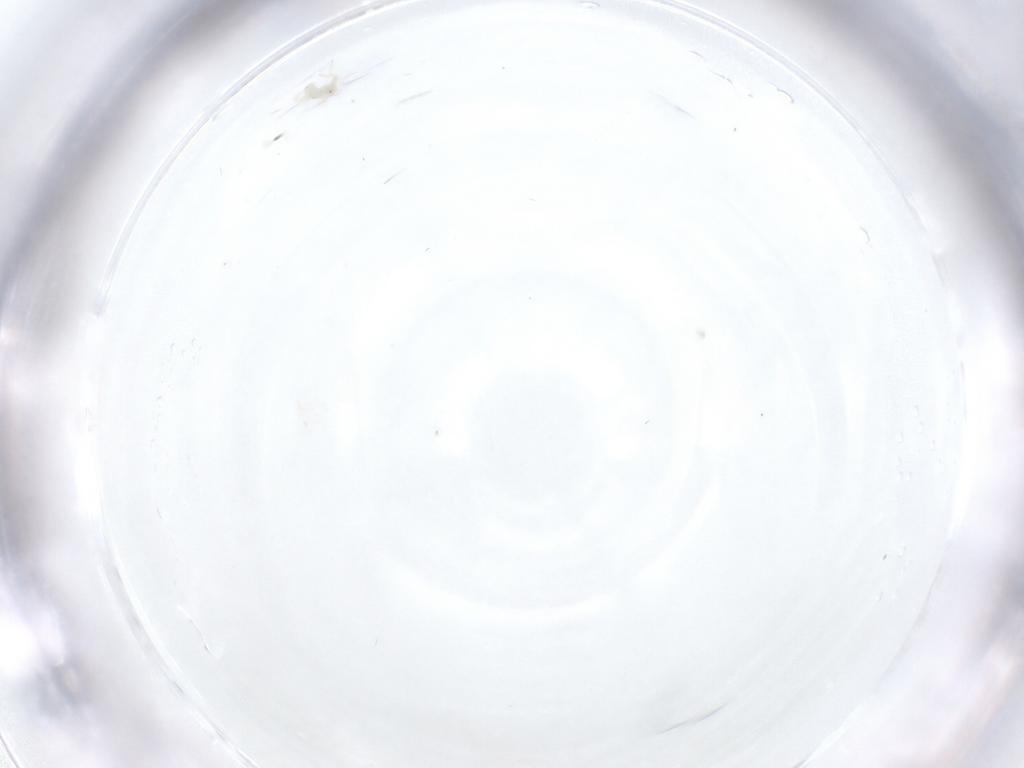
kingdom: Animalia
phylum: Arthropoda
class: Arachnida
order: Trombidiformes
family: Anystidae
